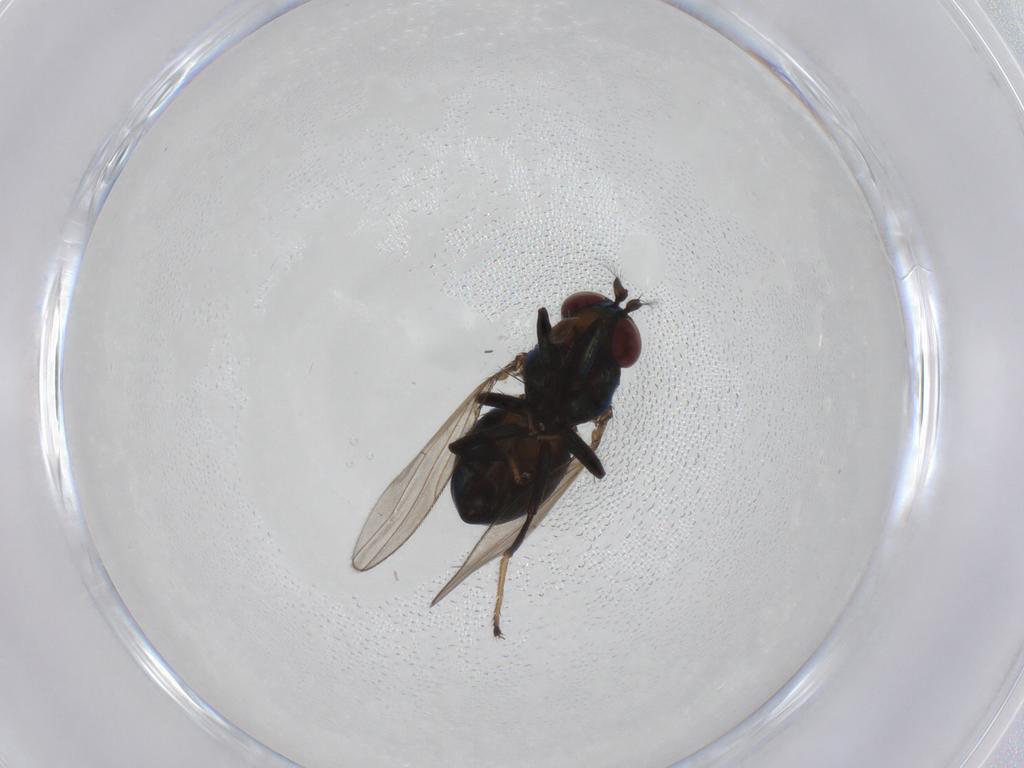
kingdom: Animalia
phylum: Arthropoda
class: Insecta
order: Diptera
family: Ephydridae
